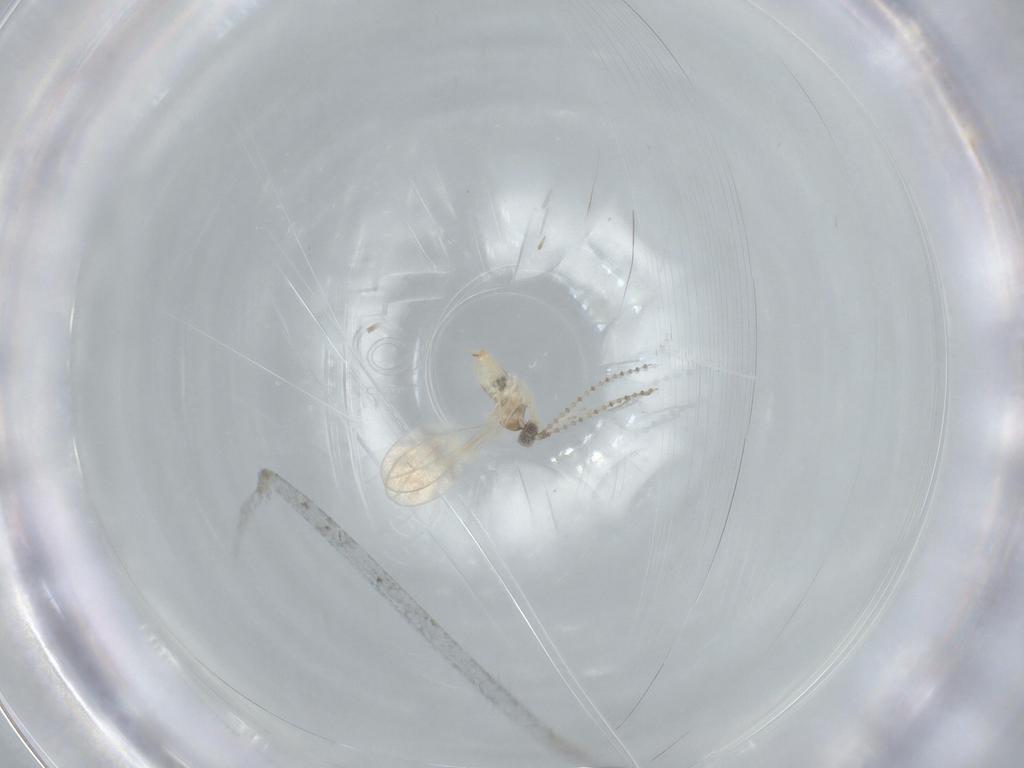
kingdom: Animalia
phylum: Arthropoda
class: Insecta
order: Diptera
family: Cecidomyiidae
